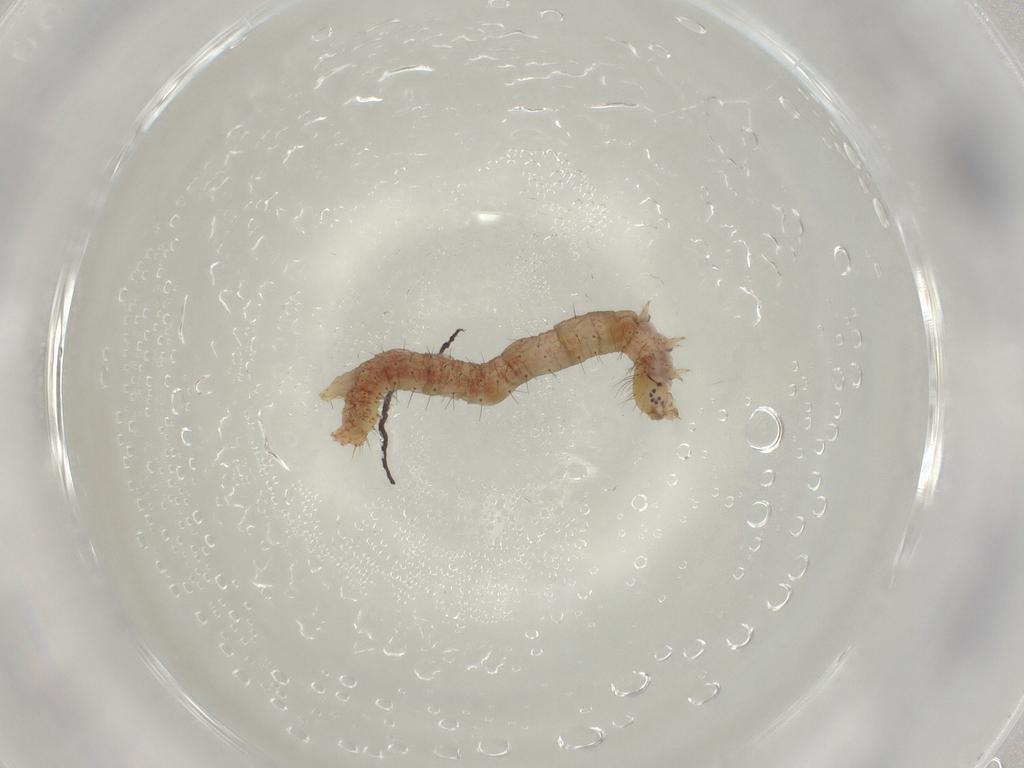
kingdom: Animalia
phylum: Arthropoda
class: Insecta
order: Lepidoptera
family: Geometridae
